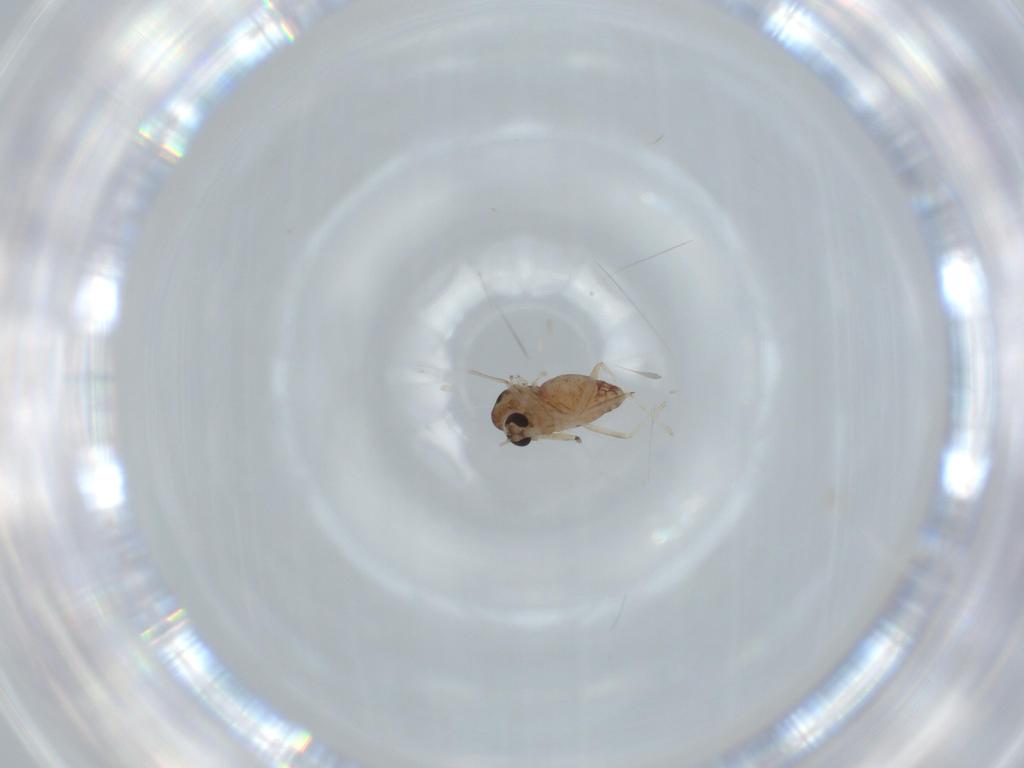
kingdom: Animalia
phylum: Arthropoda
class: Insecta
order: Diptera
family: Chironomidae
